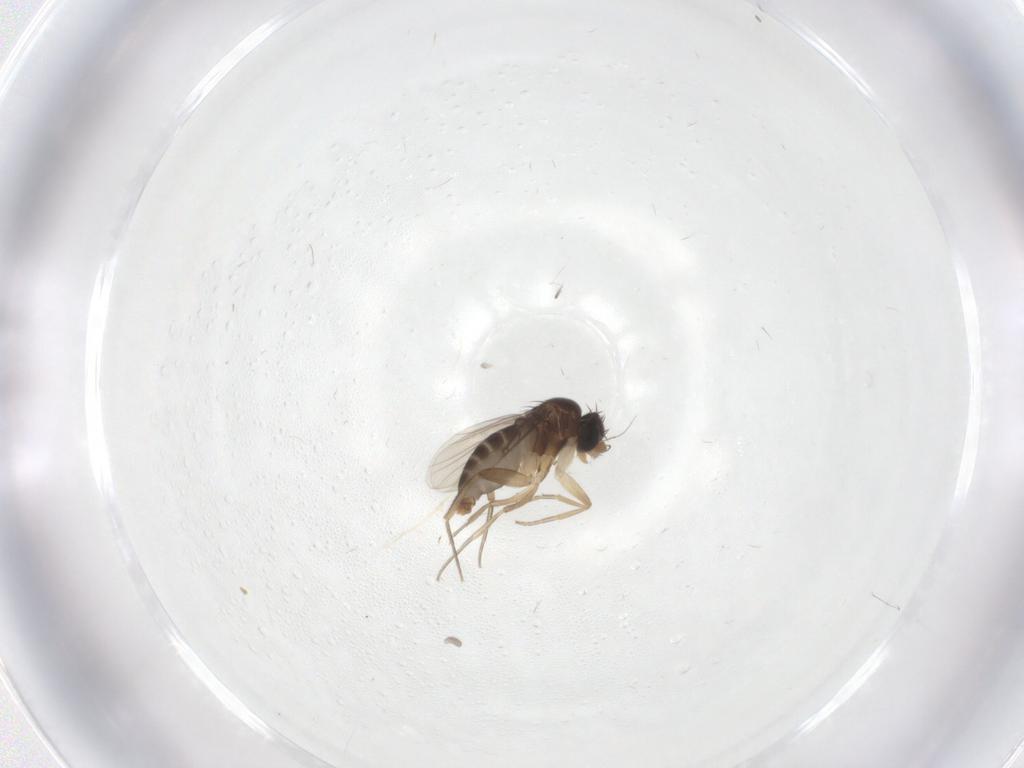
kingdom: Animalia
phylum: Arthropoda
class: Insecta
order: Diptera
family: Phoridae
